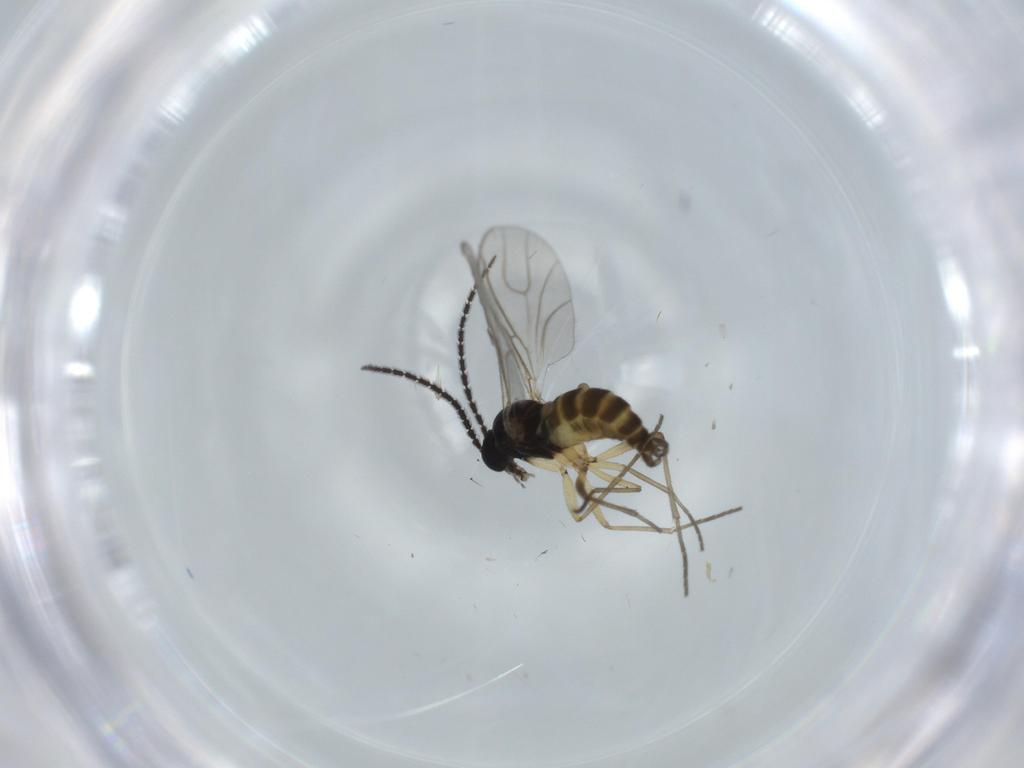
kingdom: Animalia
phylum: Arthropoda
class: Insecta
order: Diptera
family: Sciaridae
